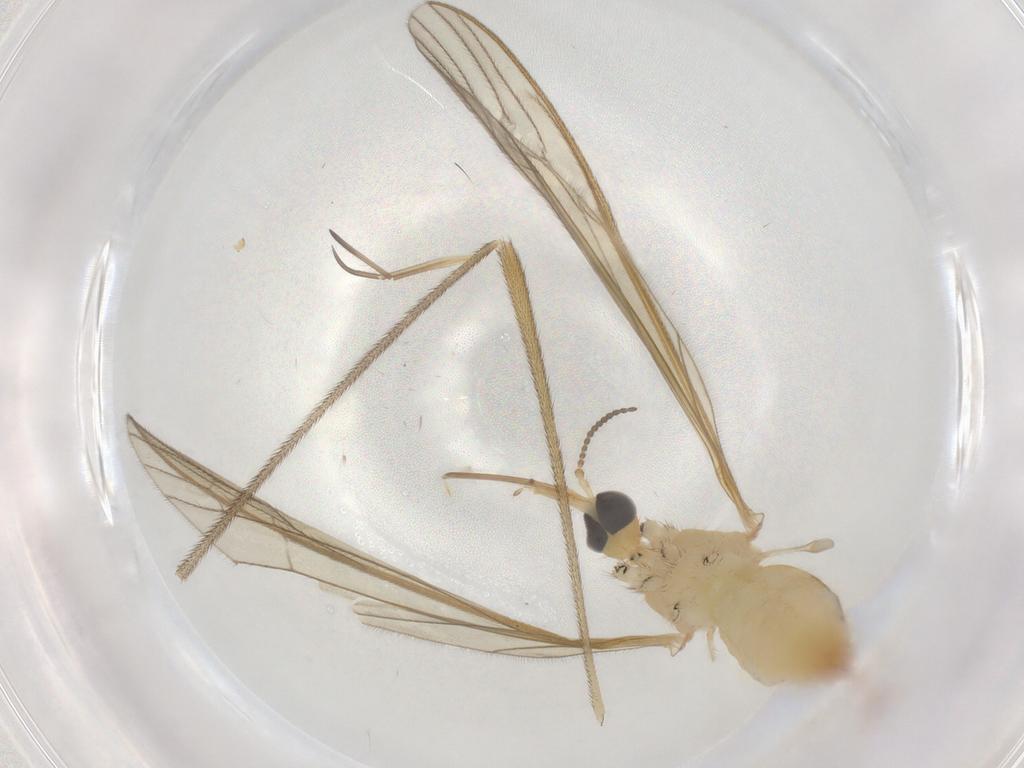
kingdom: Animalia
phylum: Arthropoda
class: Insecta
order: Diptera
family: Limoniidae
